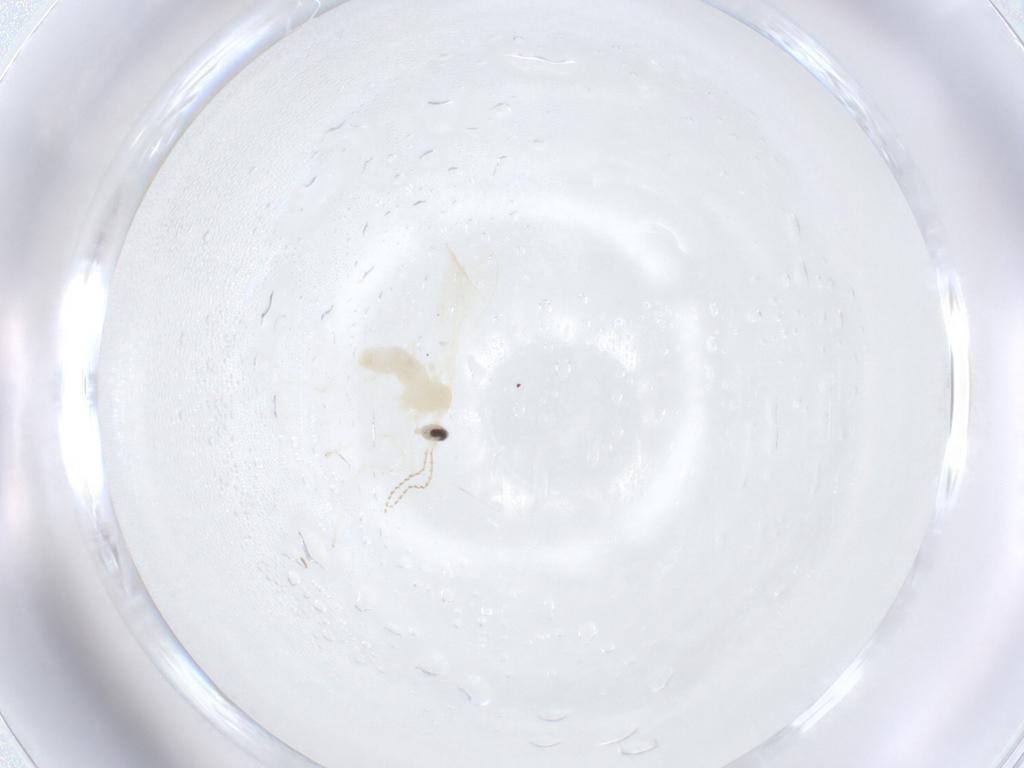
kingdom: Animalia
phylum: Arthropoda
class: Insecta
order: Diptera
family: Cecidomyiidae
